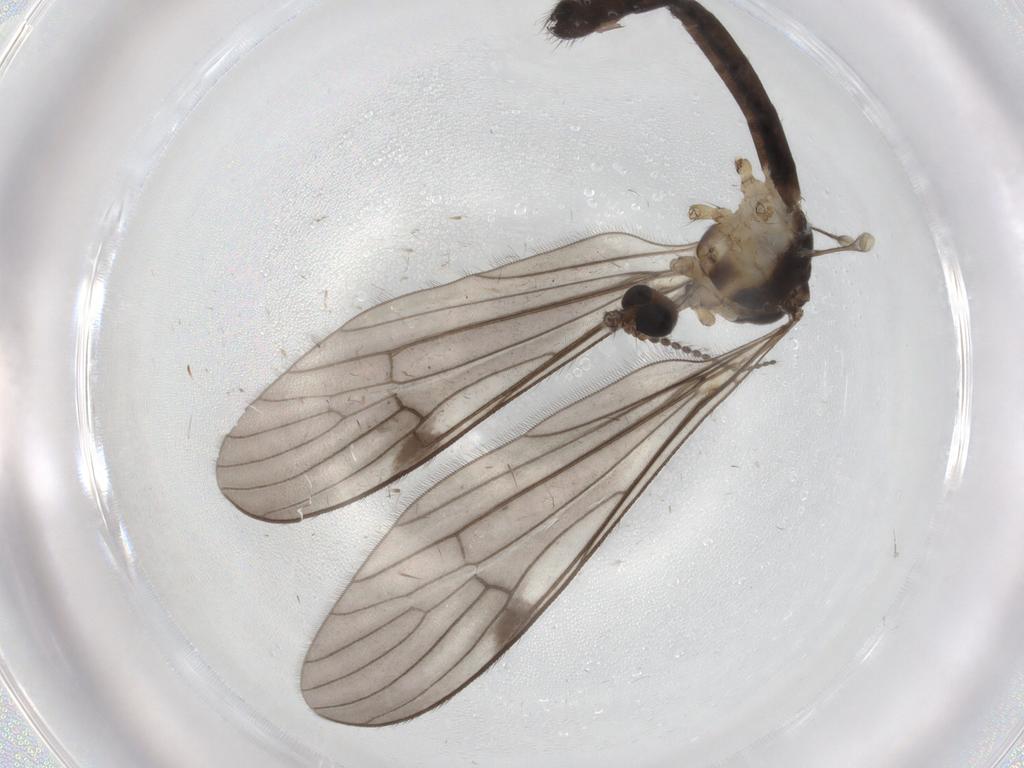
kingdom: Animalia
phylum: Arthropoda
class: Insecta
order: Diptera
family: Limoniidae
